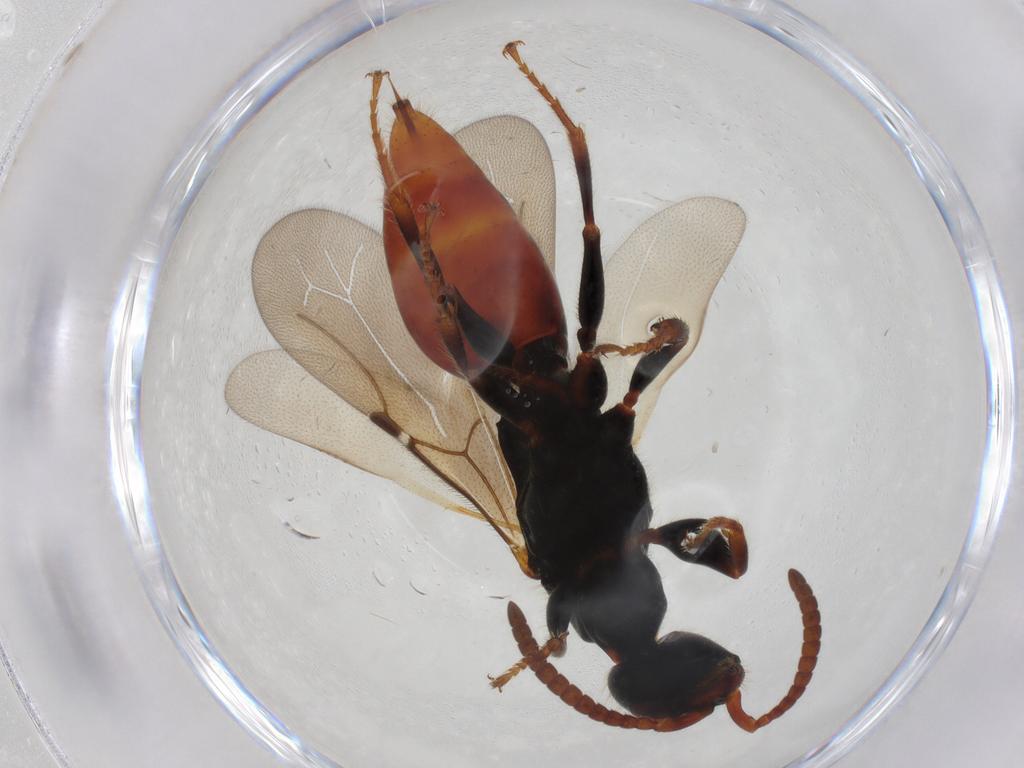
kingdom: Animalia
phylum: Arthropoda
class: Insecta
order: Hymenoptera
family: Bethylidae
